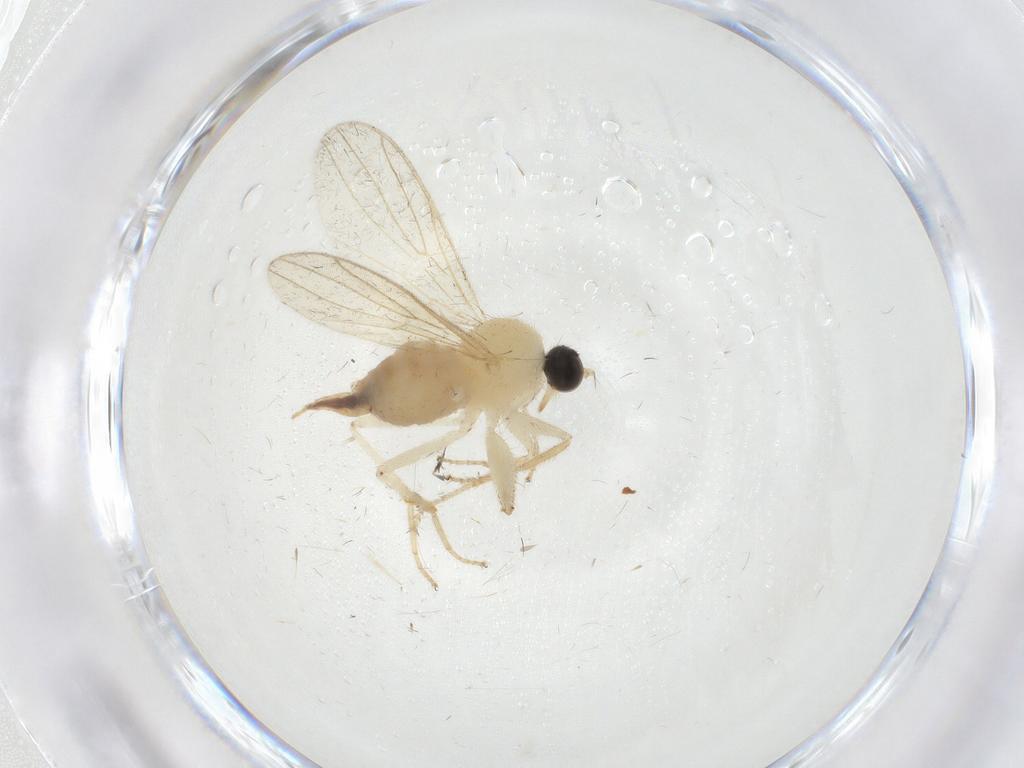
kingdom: Animalia
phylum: Arthropoda
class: Insecta
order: Diptera
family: Hybotidae
